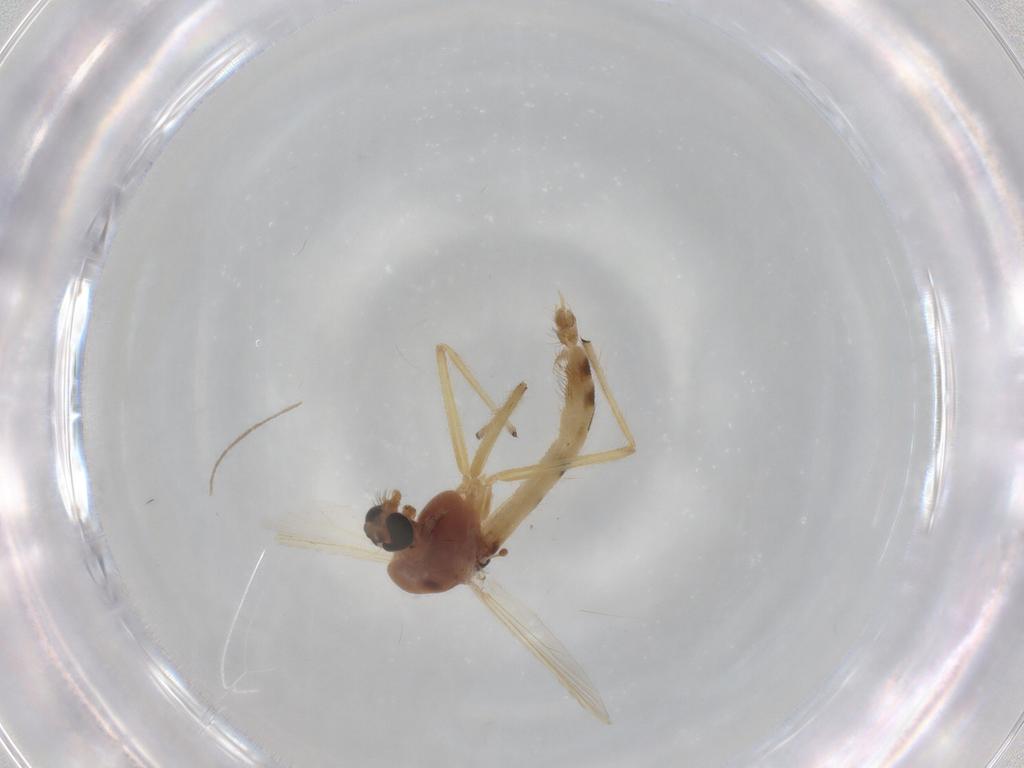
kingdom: Animalia
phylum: Arthropoda
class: Insecta
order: Diptera
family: Chironomidae
